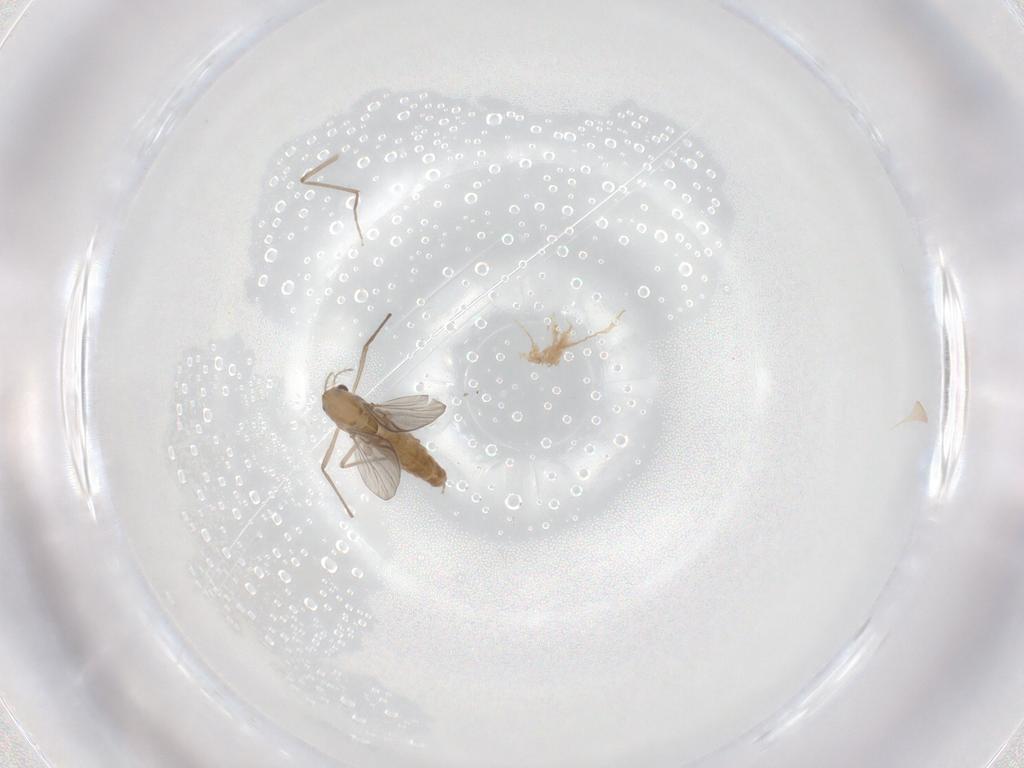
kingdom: Animalia
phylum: Arthropoda
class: Insecta
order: Diptera
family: Chironomidae
